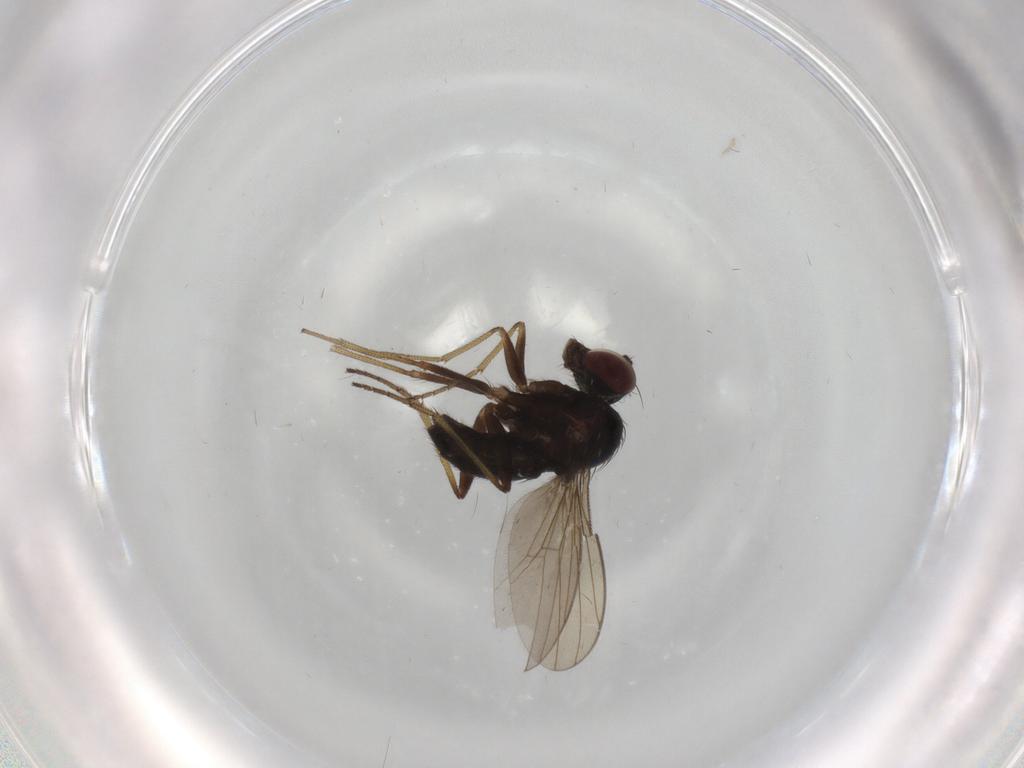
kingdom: Animalia
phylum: Arthropoda
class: Insecta
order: Diptera
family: Dolichopodidae
